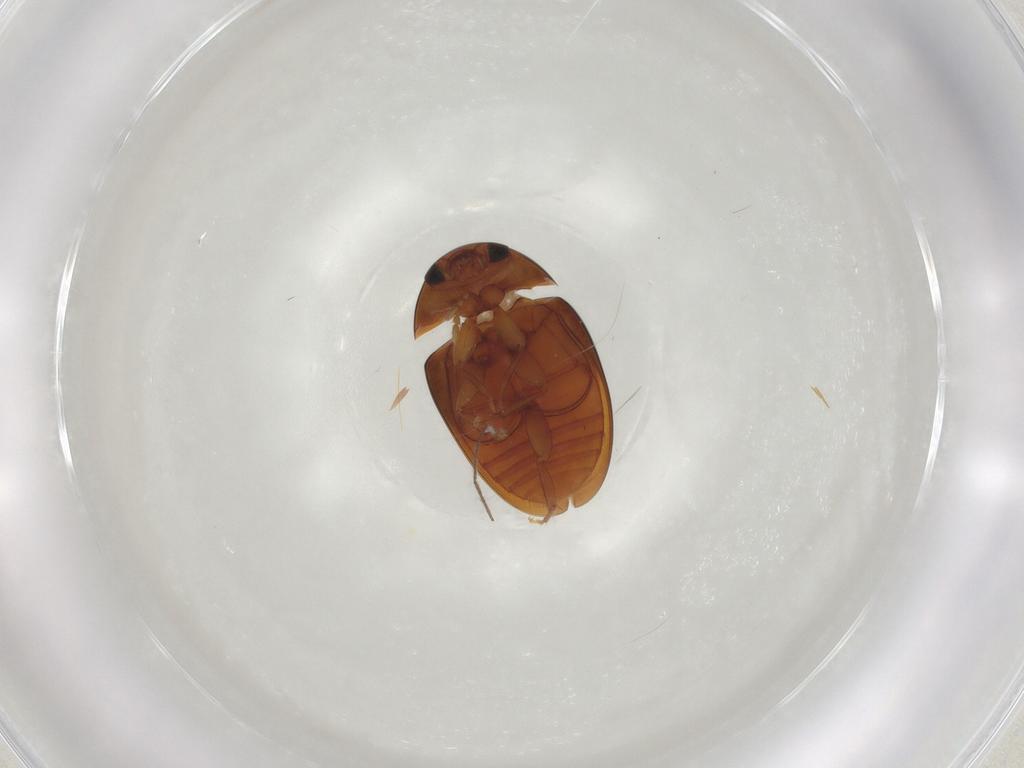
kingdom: Animalia
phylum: Arthropoda
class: Insecta
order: Coleoptera
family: Phalacridae
